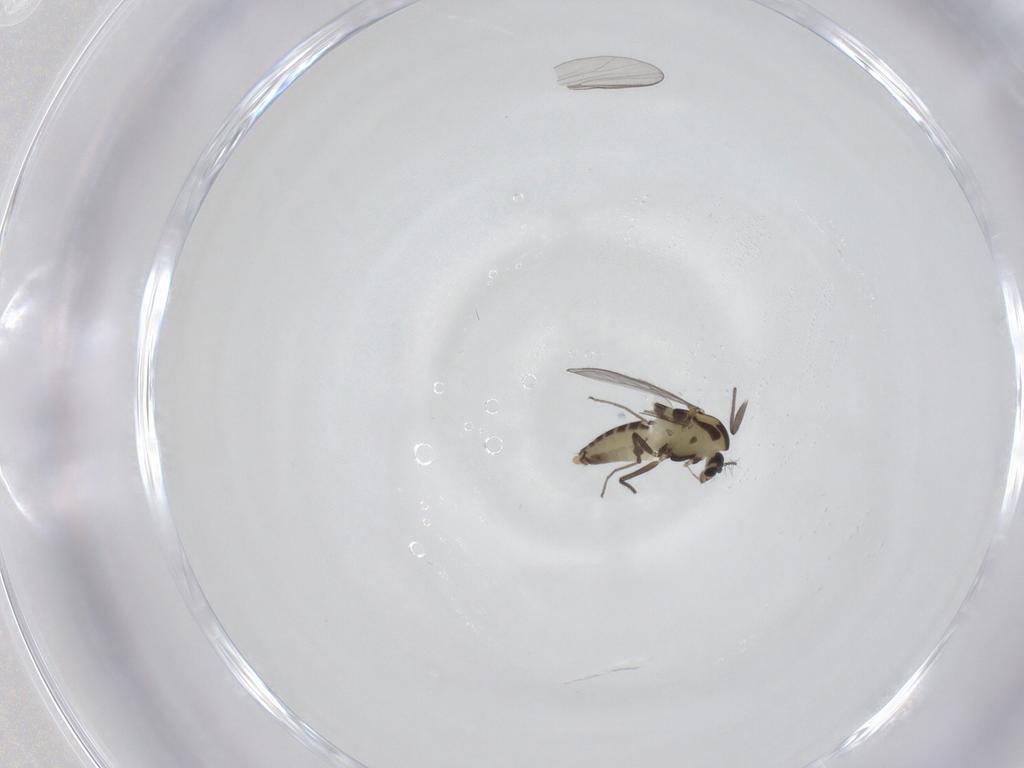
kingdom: Animalia
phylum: Arthropoda
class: Insecta
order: Diptera
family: Chironomidae
